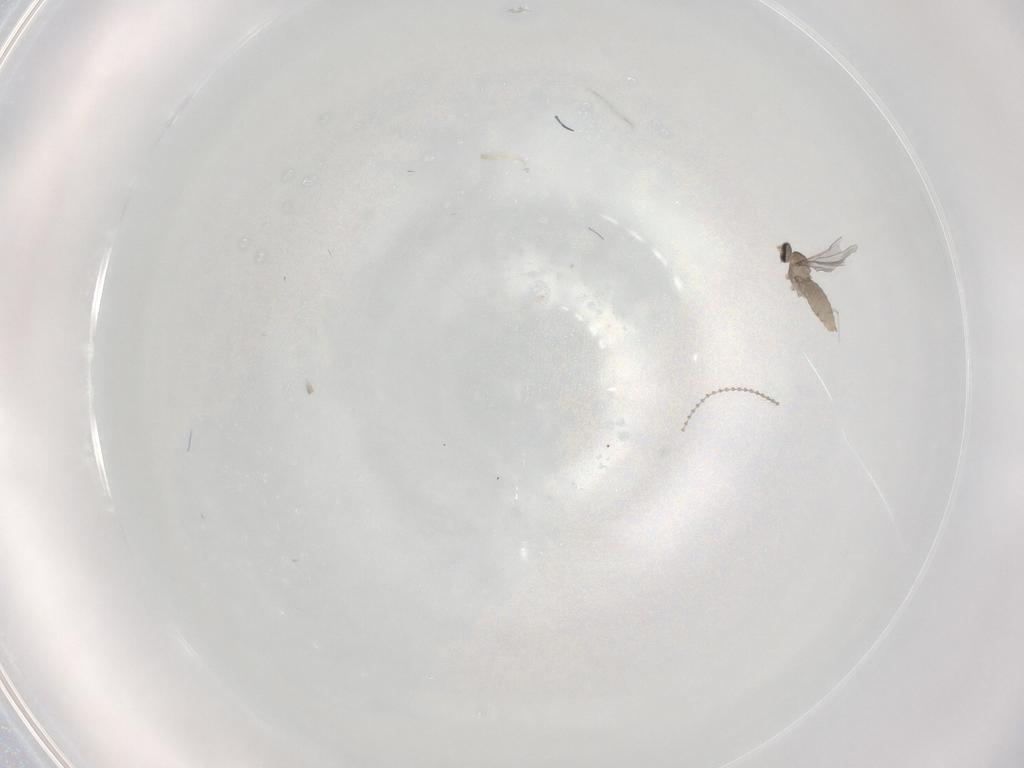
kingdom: Animalia
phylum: Arthropoda
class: Insecta
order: Diptera
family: Cecidomyiidae
